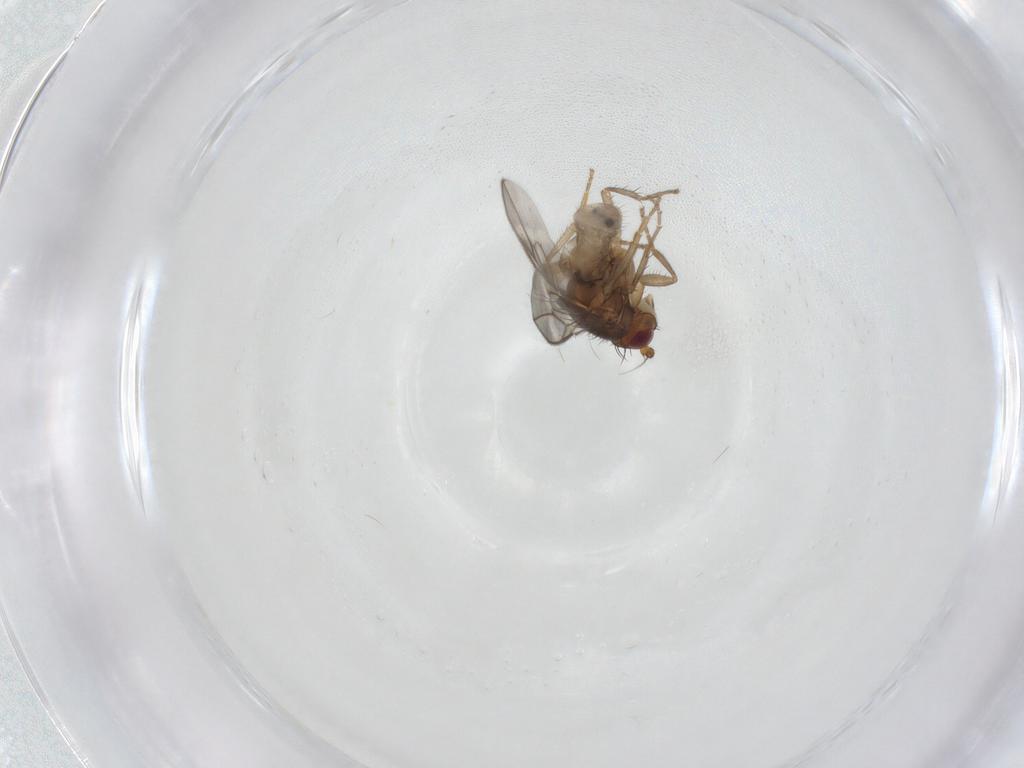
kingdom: Animalia
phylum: Arthropoda
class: Insecta
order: Diptera
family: Sphaeroceridae
